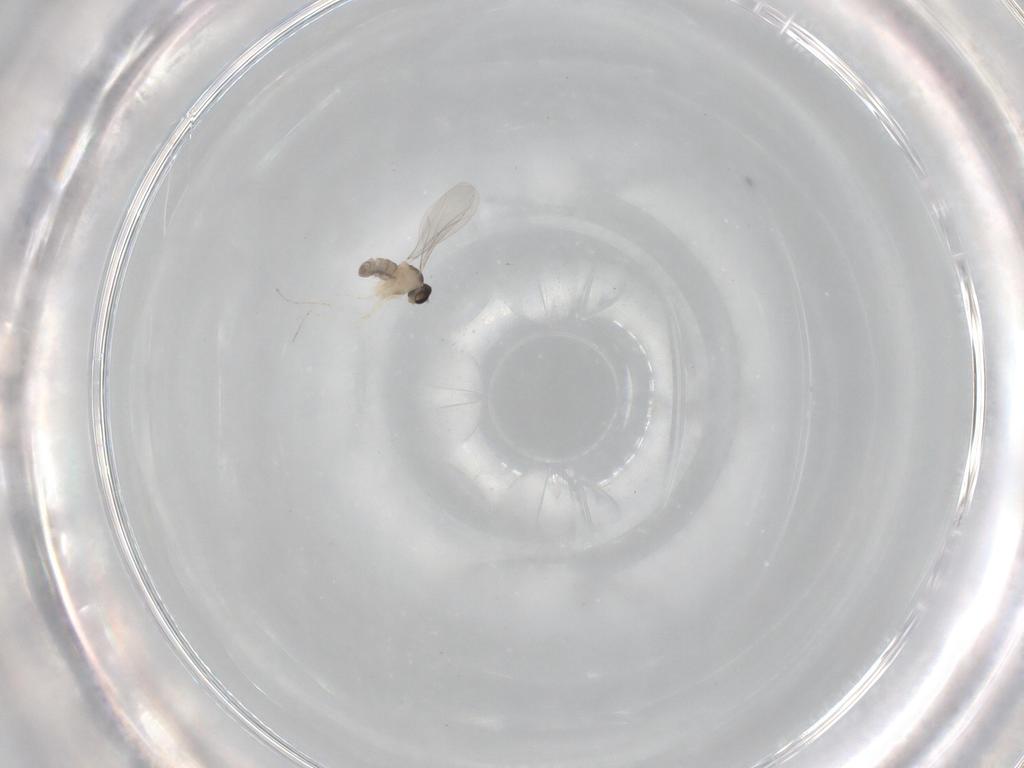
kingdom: Animalia
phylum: Arthropoda
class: Insecta
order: Diptera
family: Cecidomyiidae
